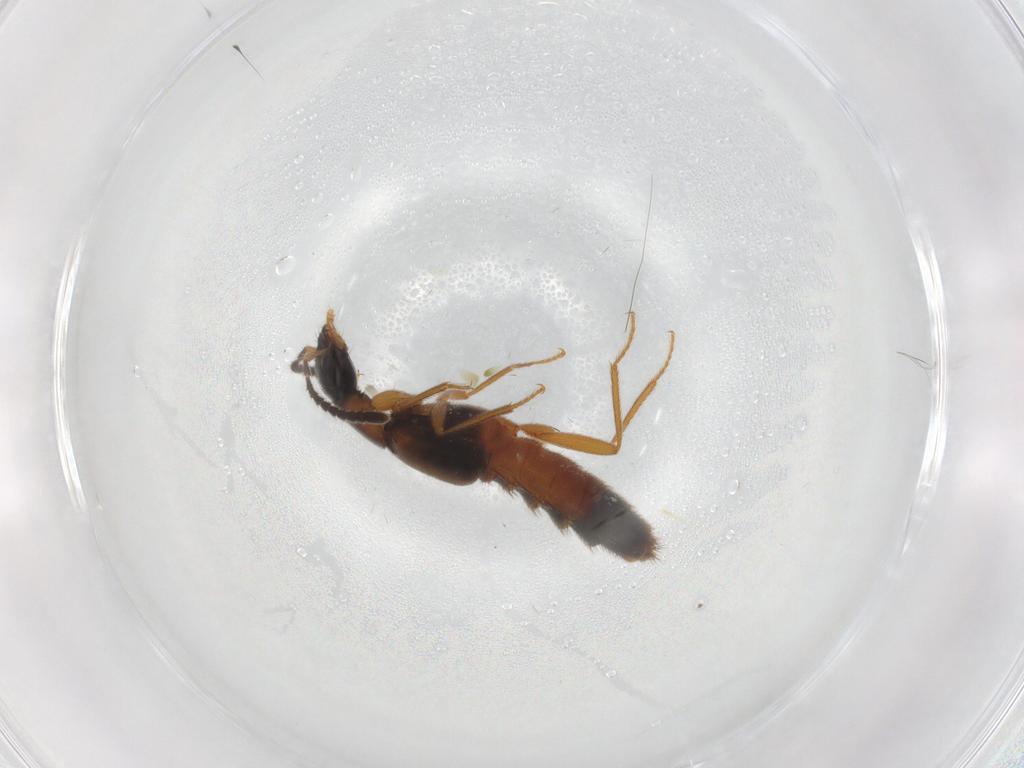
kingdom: Animalia
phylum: Arthropoda
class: Insecta
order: Coleoptera
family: Staphylinidae
